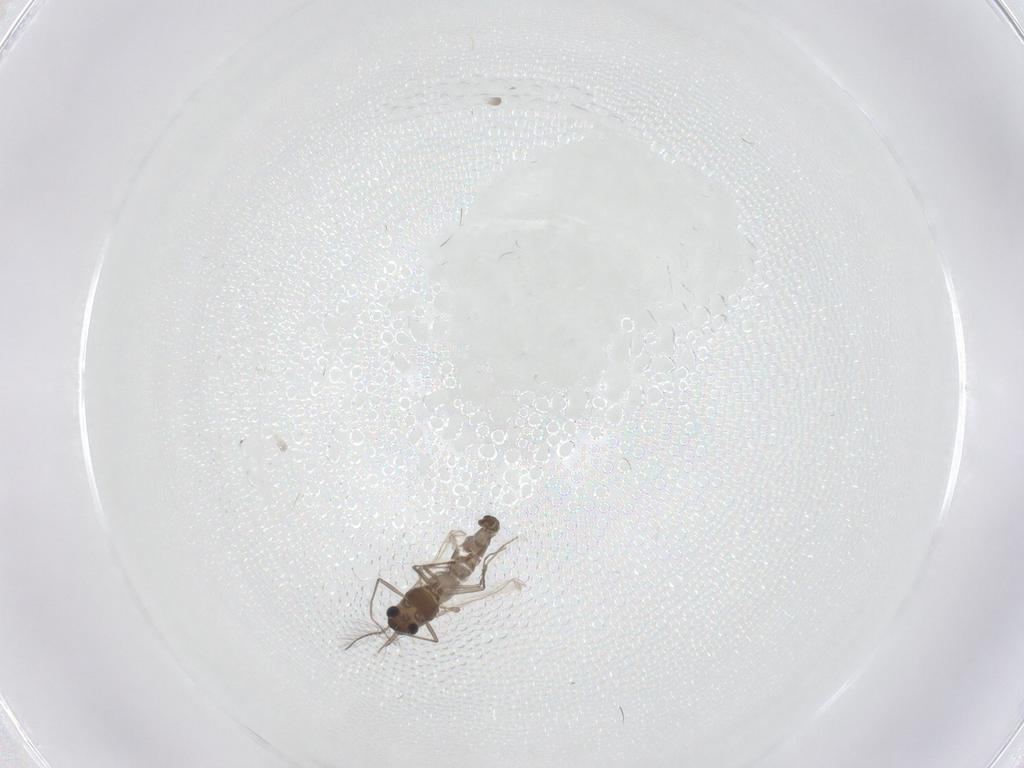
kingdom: Animalia
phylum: Arthropoda
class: Insecta
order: Diptera
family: Chironomidae
